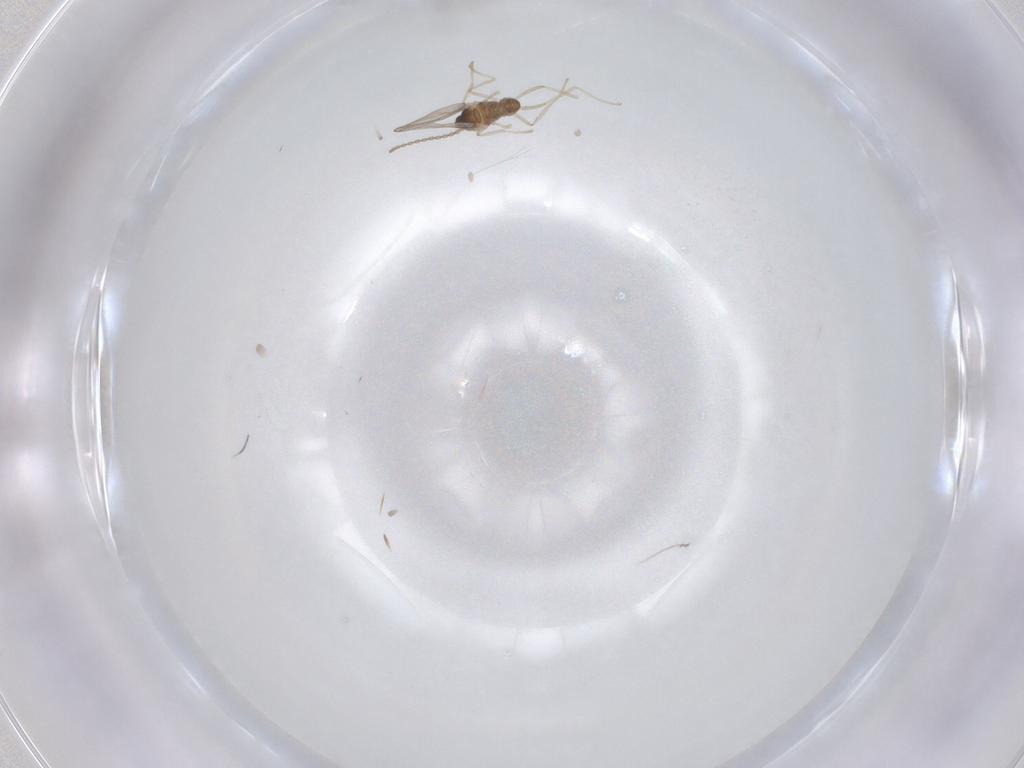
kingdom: Animalia
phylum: Arthropoda
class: Insecta
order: Diptera
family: Cecidomyiidae
